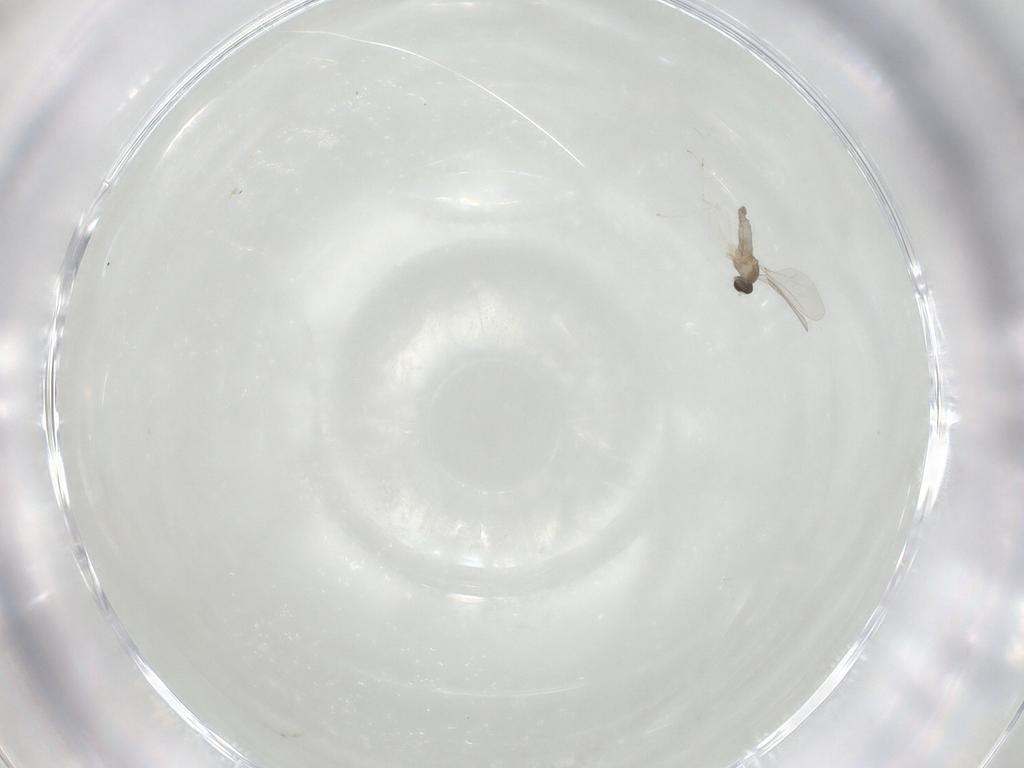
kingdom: Animalia
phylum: Arthropoda
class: Insecta
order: Diptera
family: Cecidomyiidae
